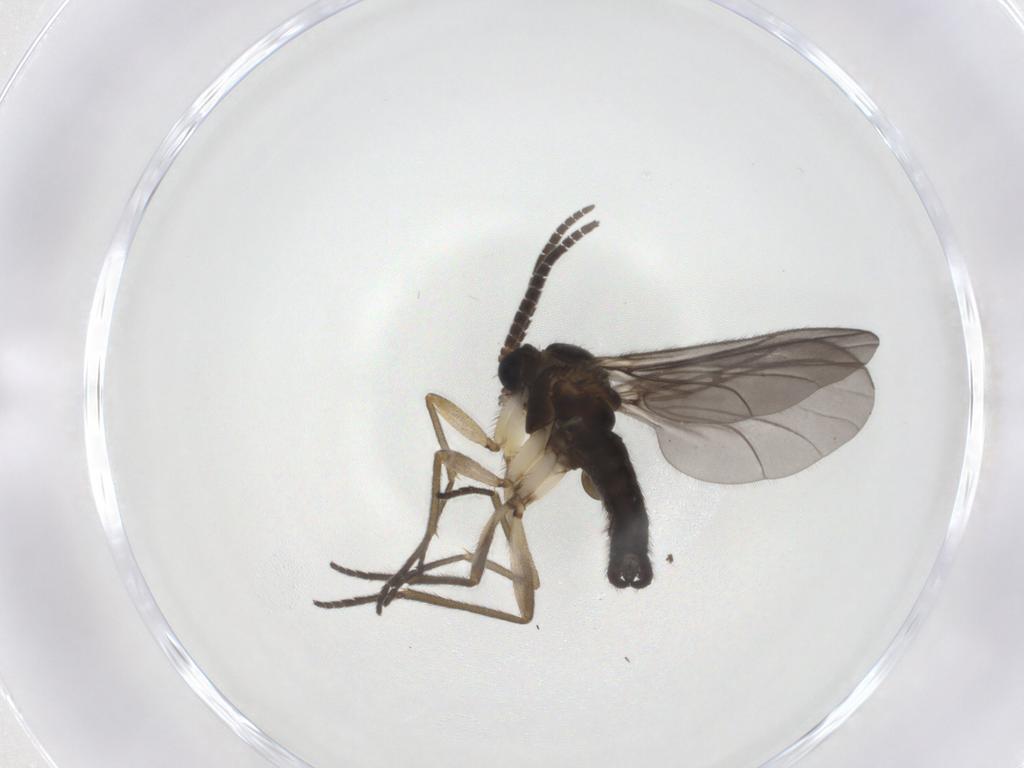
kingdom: Animalia
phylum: Arthropoda
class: Insecta
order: Diptera
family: Sciaridae
